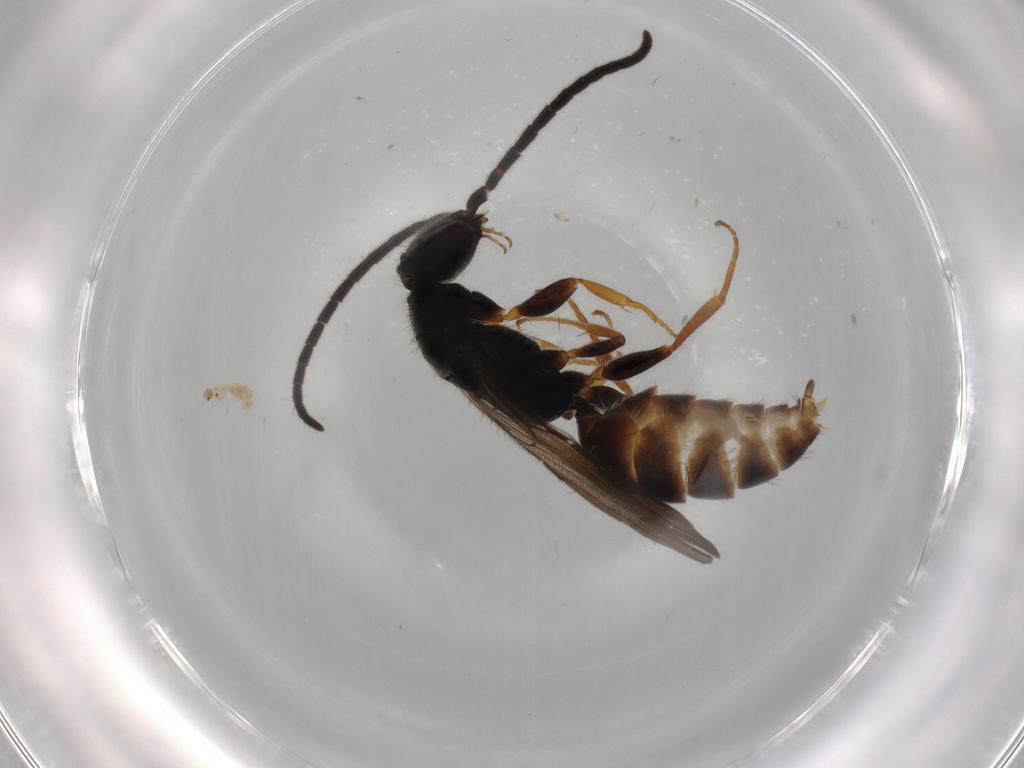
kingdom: Animalia
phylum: Arthropoda
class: Insecta
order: Hymenoptera
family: Bethylidae
